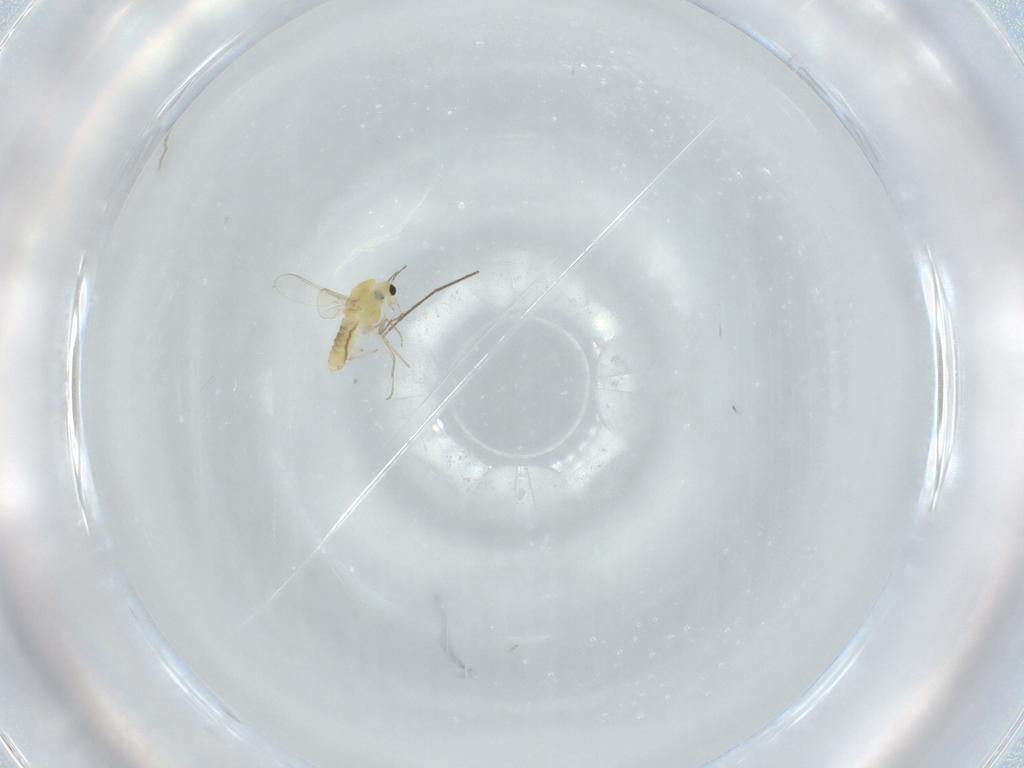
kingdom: Animalia
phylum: Arthropoda
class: Insecta
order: Diptera
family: Chironomidae
